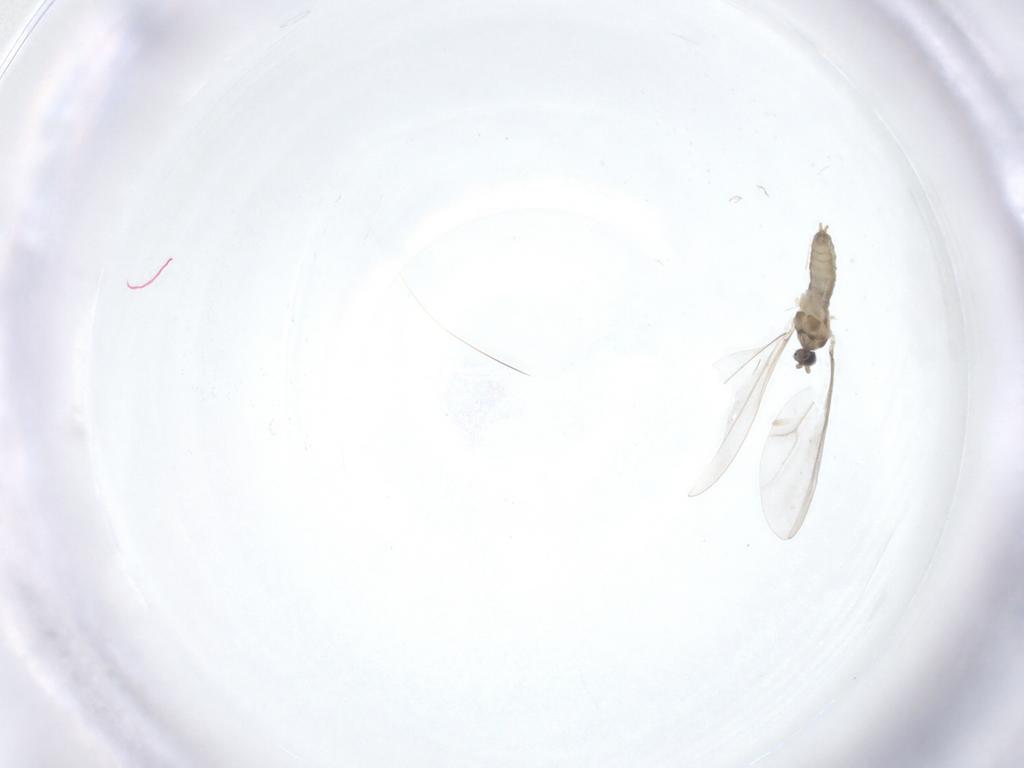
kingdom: Animalia
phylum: Arthropoda
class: Insecta
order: Diptera
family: Cecidomyiidae
